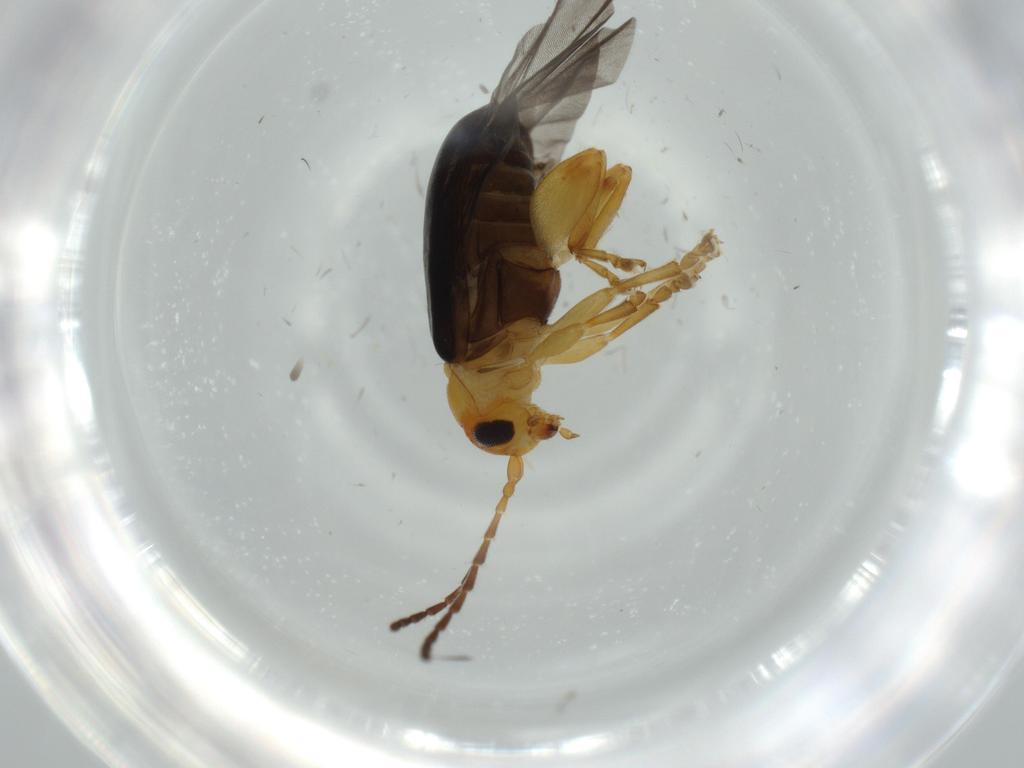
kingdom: Animalia
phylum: Arthropoda
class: Insecta
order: Coleoptera
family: Chrysomelidae
